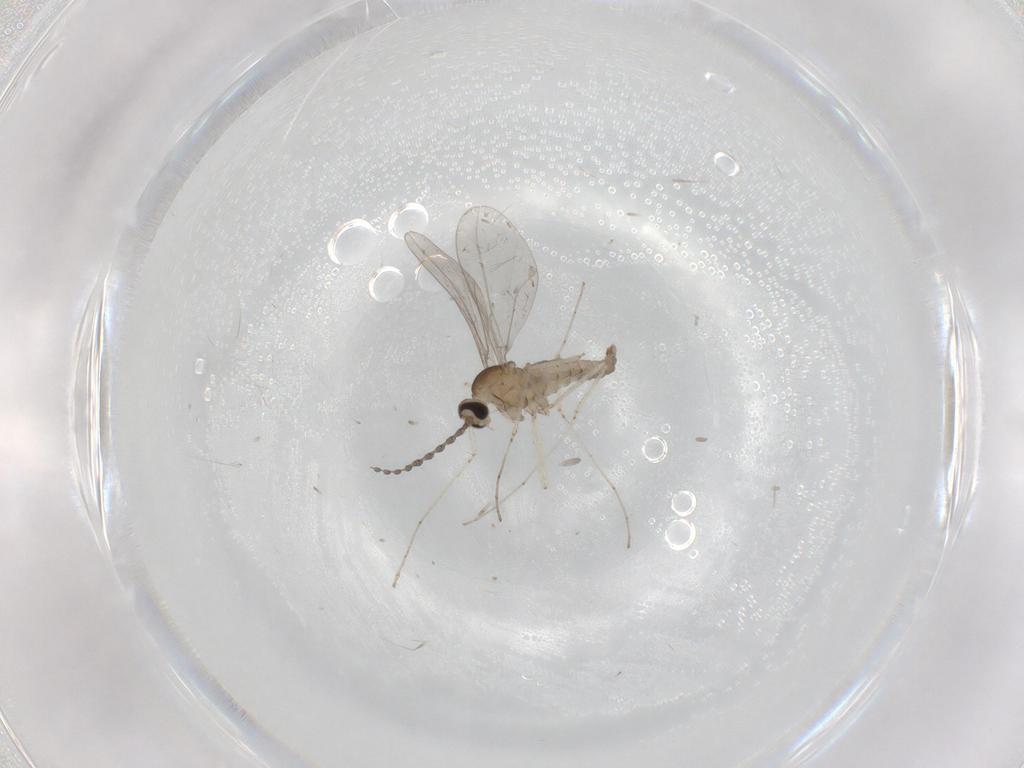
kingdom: Animalia
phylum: Arthropoda
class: Insecta
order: Diptera
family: Cecidomyiidae
